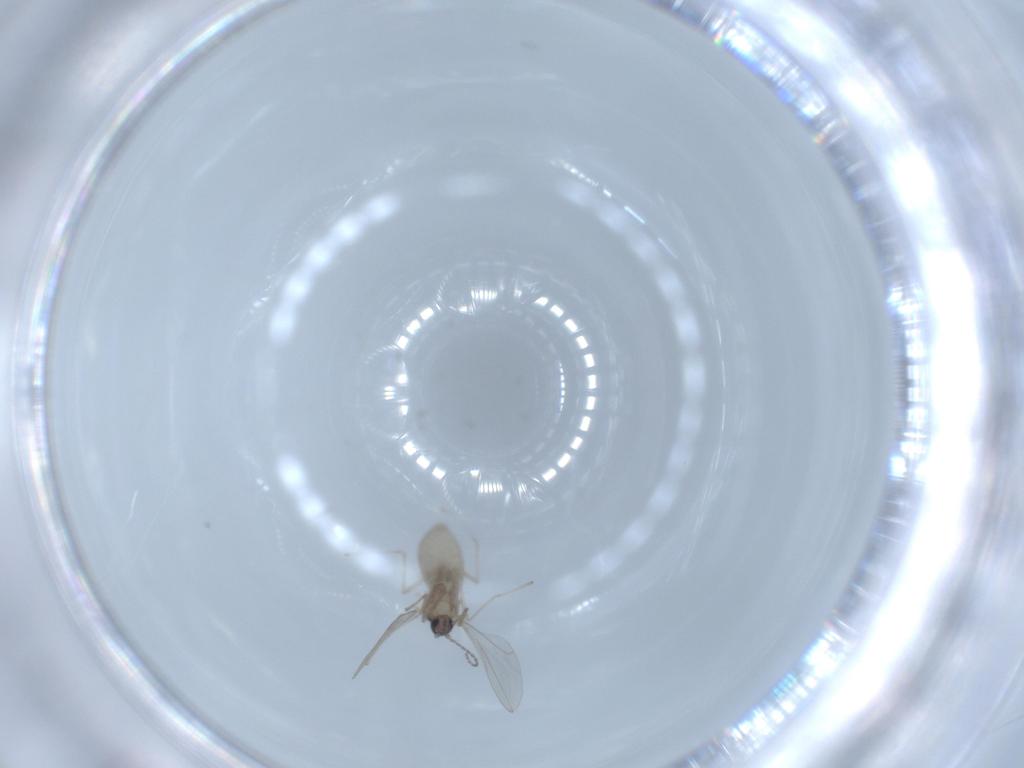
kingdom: Animalia
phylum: Arthropoda
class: Insecta
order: Diptera
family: Cecidomyiidae
